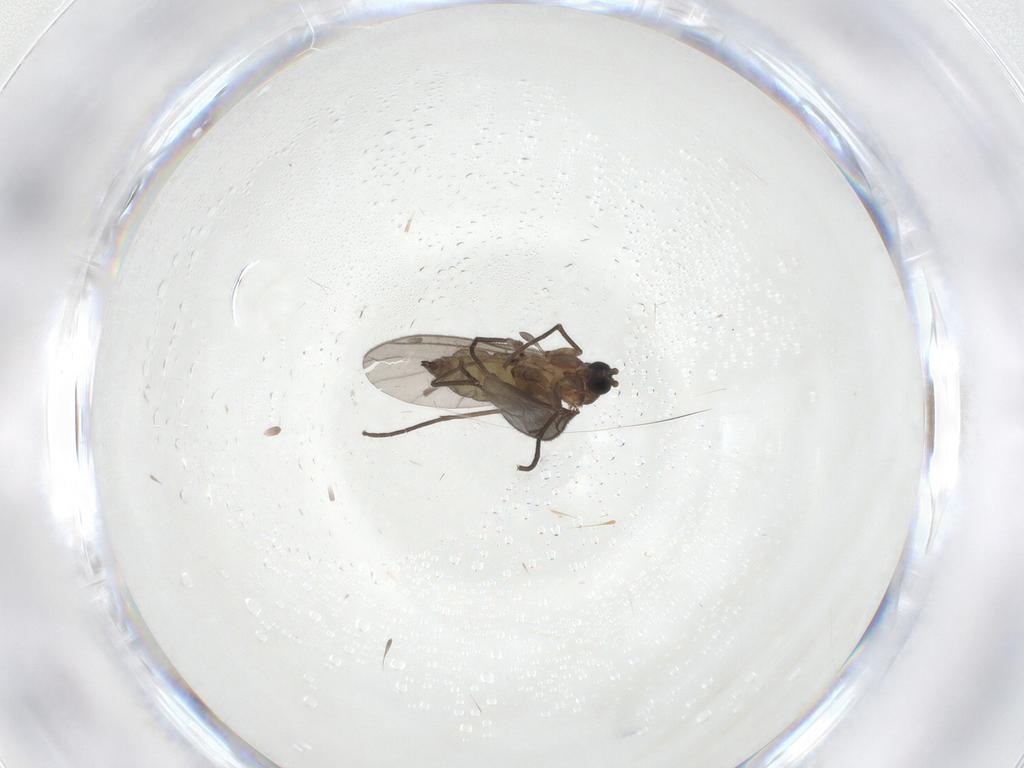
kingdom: Animalia
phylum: Arthropoda
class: Insecta
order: Diptera
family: Sciaridae
